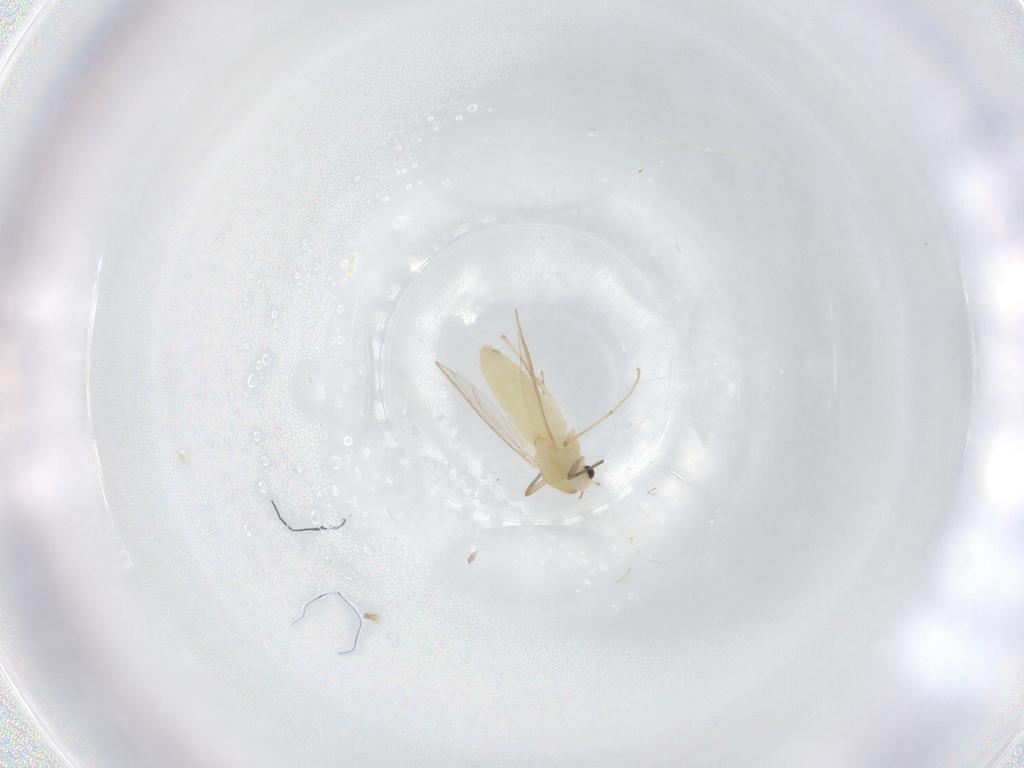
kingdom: Animalia
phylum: Arthropoda
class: Insecta
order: Diptera
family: Chironomidae
